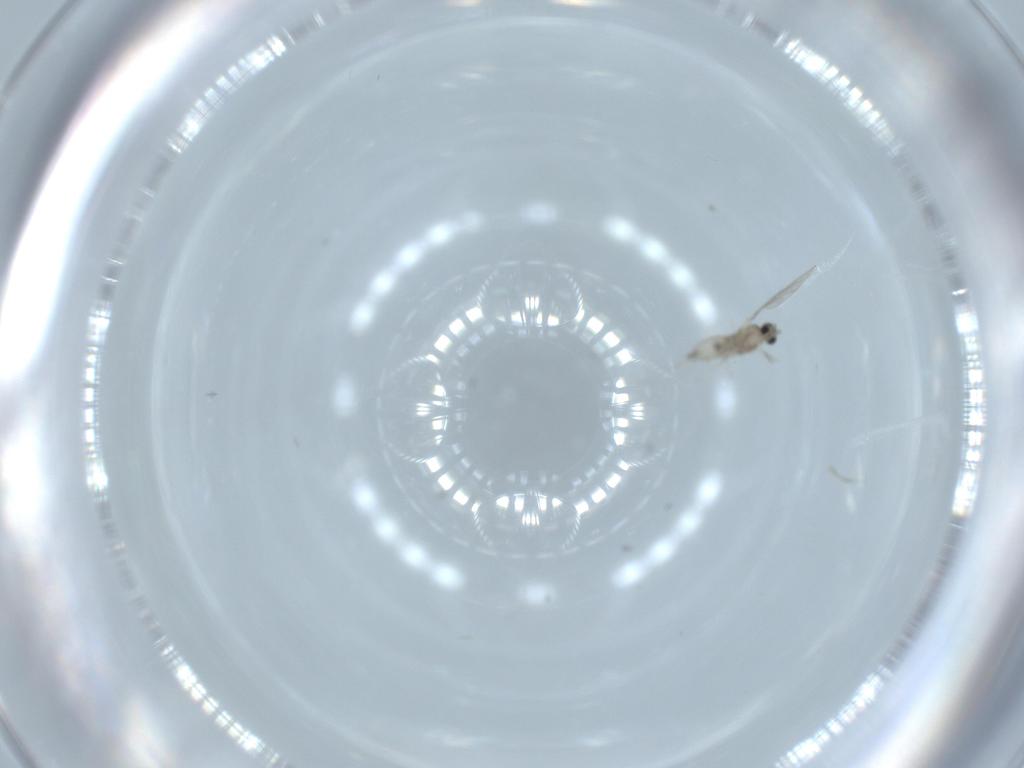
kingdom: Animalia
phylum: Arthropoda
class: Insecta
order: Diptera
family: Cecidomyiidae
